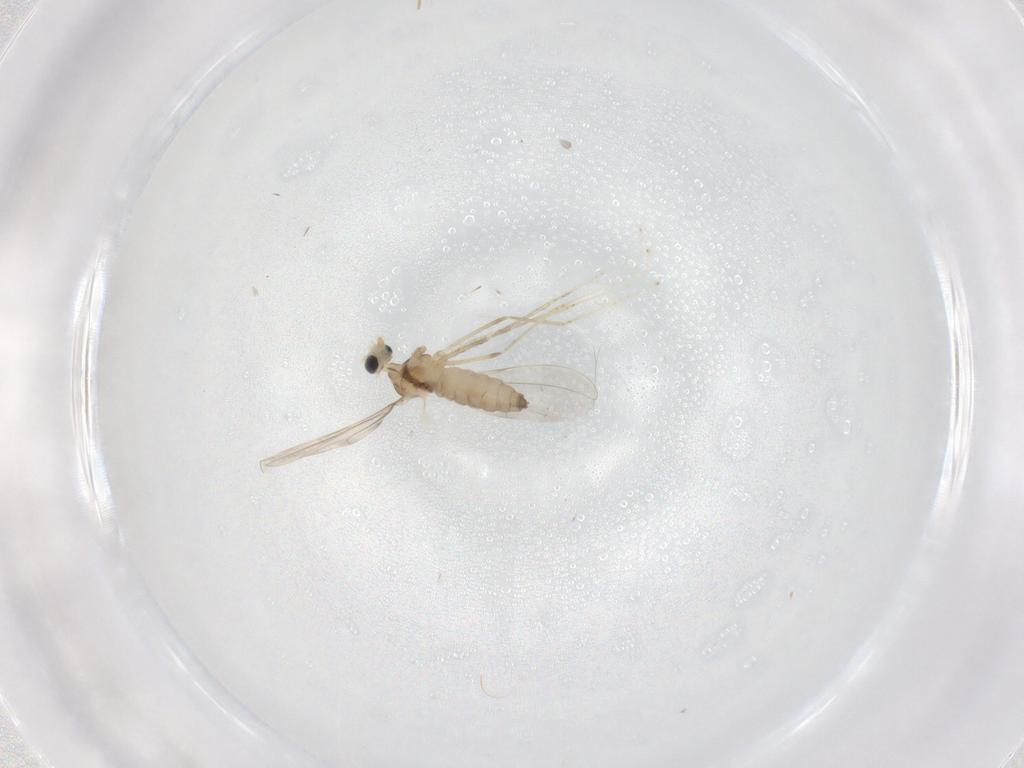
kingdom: Animalia
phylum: Arthropoda
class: Insecta
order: Diptera
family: Cecidomyiidae
